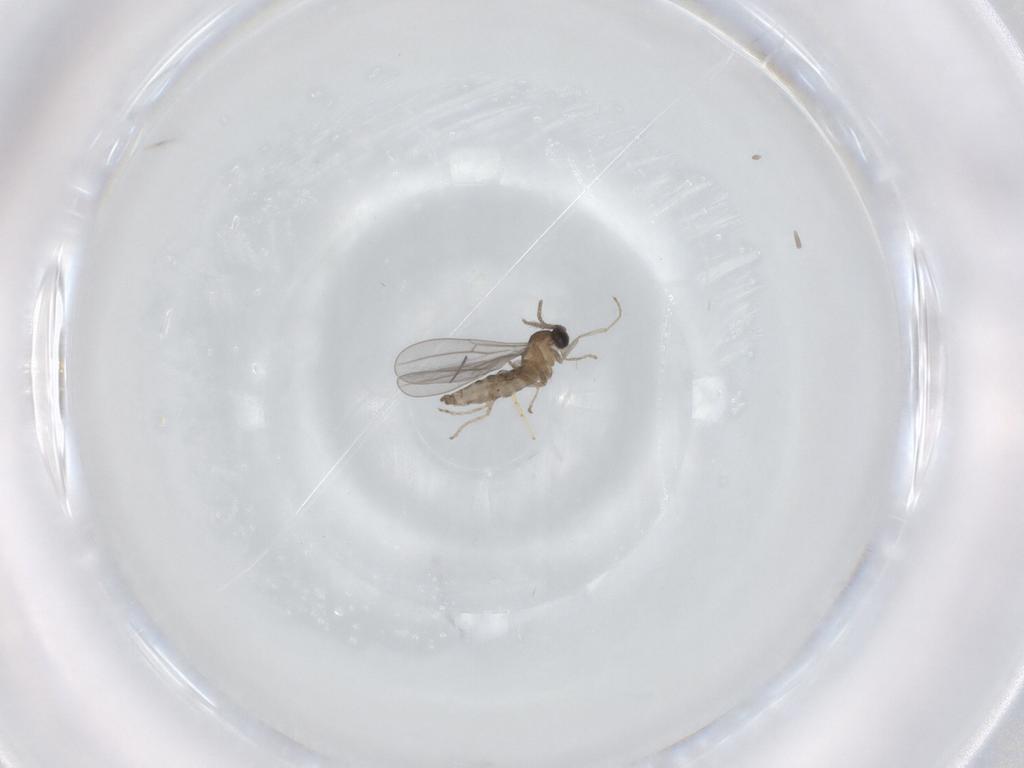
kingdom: Animalia
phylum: Arthropoda
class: Insecta
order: Diptera
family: Cecidomyiidae
